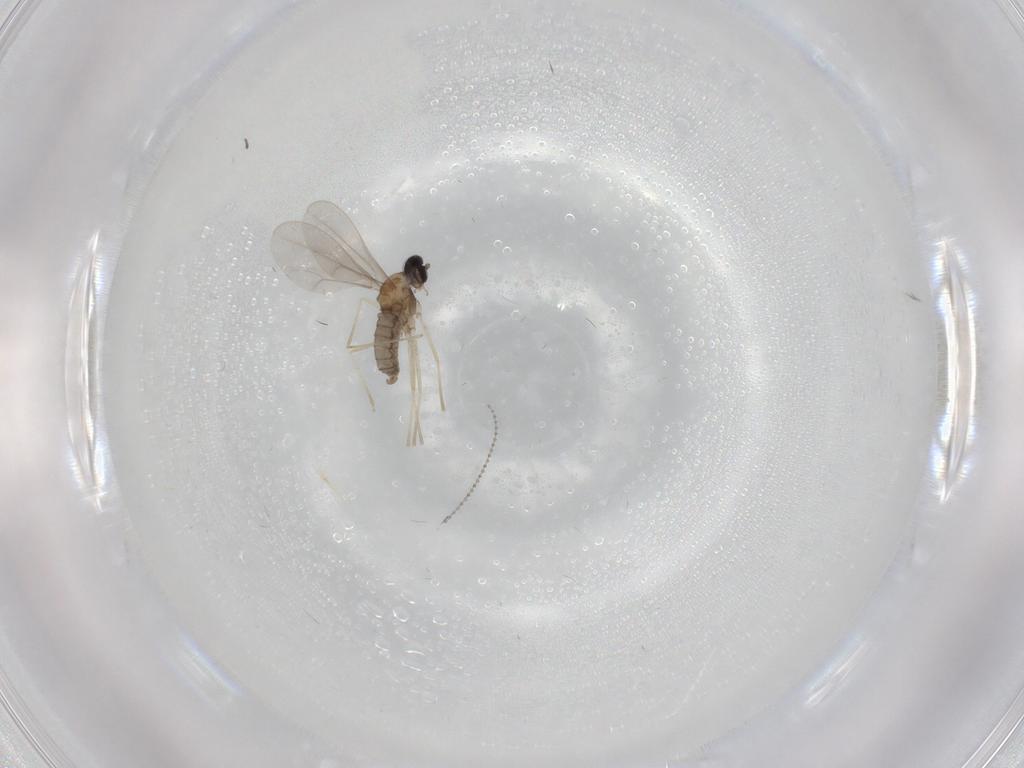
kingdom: Animalia
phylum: Arthropoda
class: Insecta
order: Diptera
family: Cecidomyiidae
